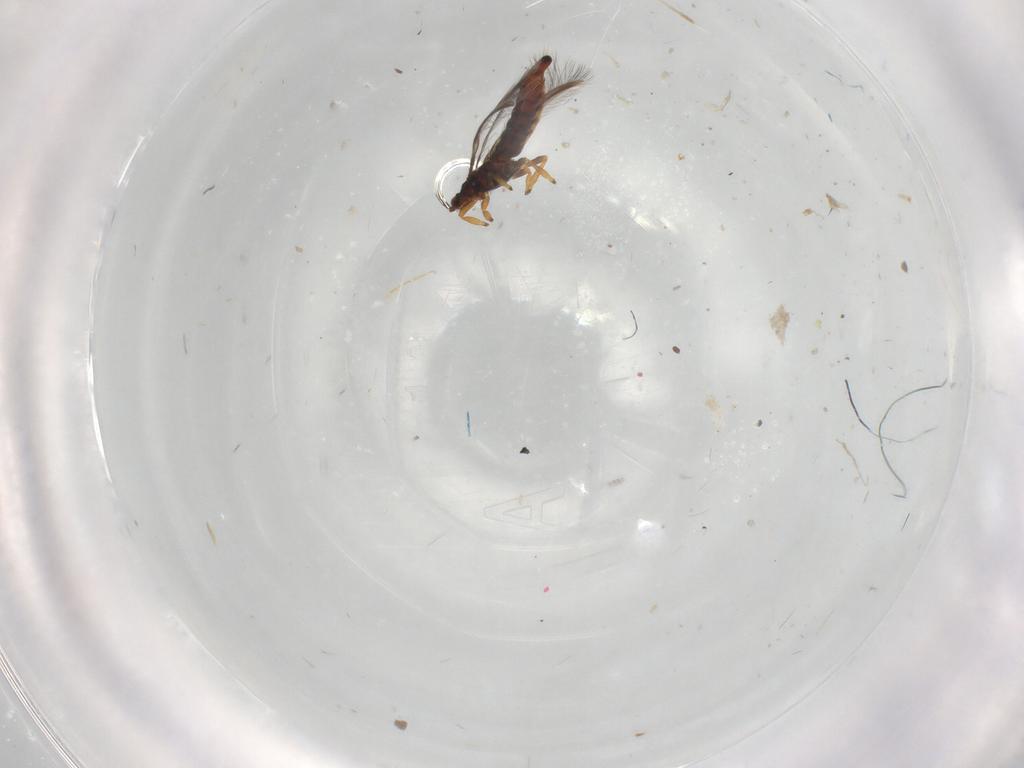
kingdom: Animalia
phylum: Arthropoda
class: Insecta
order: Thysanoptera
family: Thripidae
